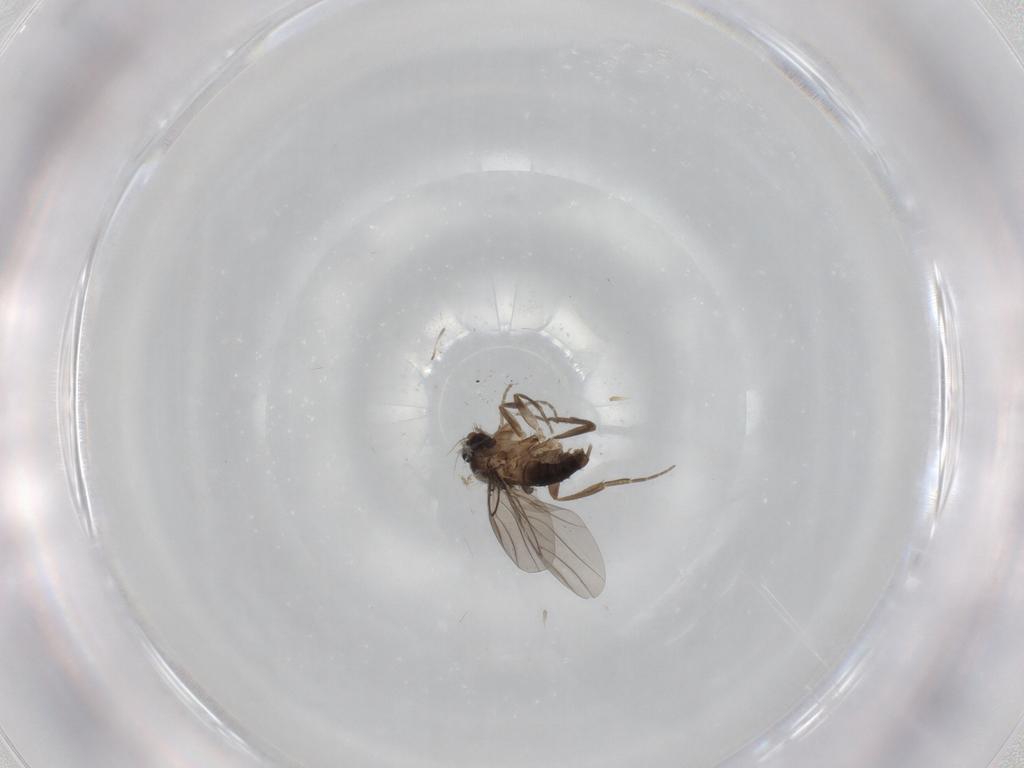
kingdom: Animalia
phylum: Arthropoda
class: Insecta
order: Diptera
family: Phoridae
